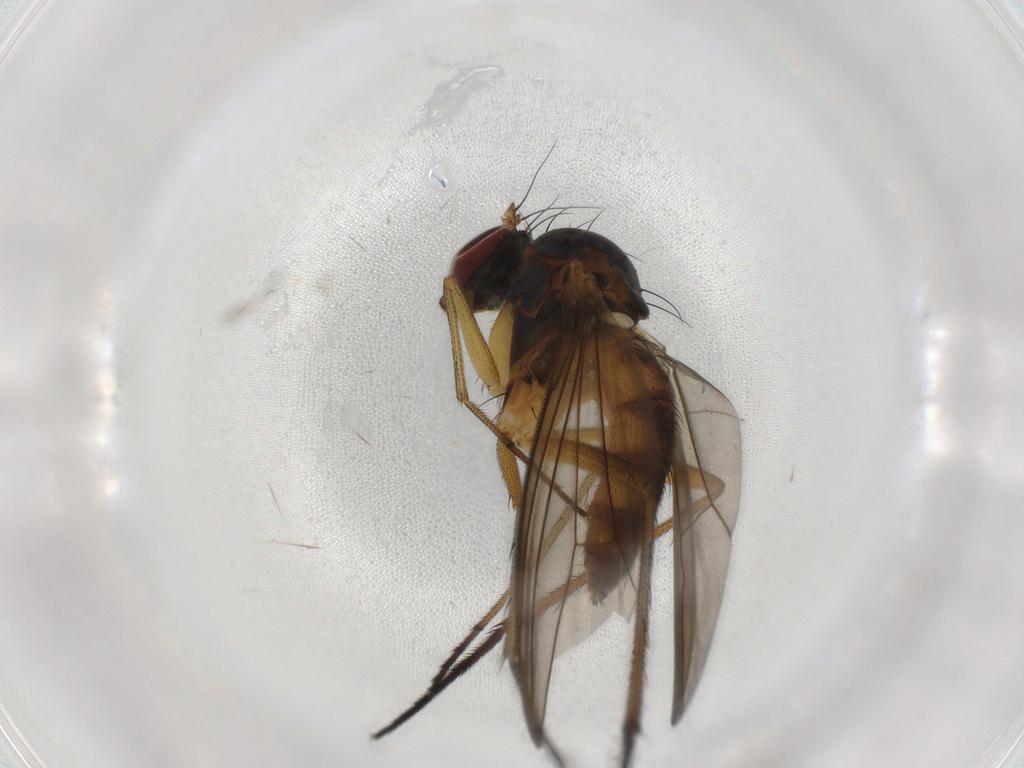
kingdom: Animalia
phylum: Arthropoda
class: Insecta
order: Diptera
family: Dolichopodidae
